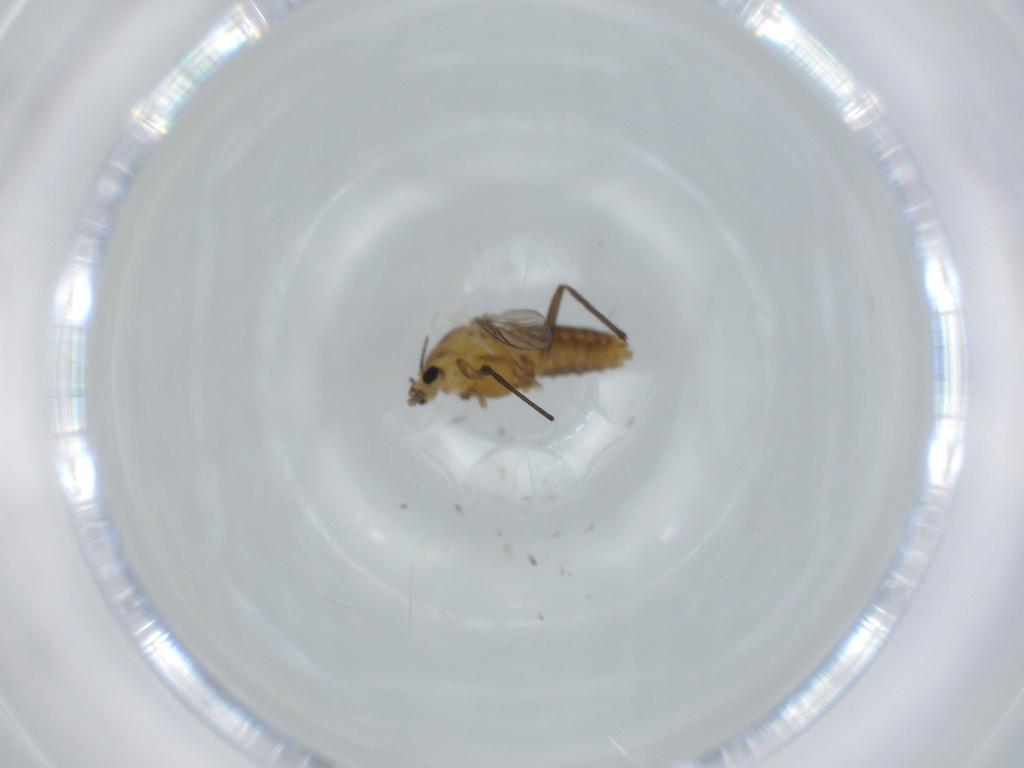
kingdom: Animalia
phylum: Arthropoda
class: Insecta
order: Diptera
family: Chironomidae
